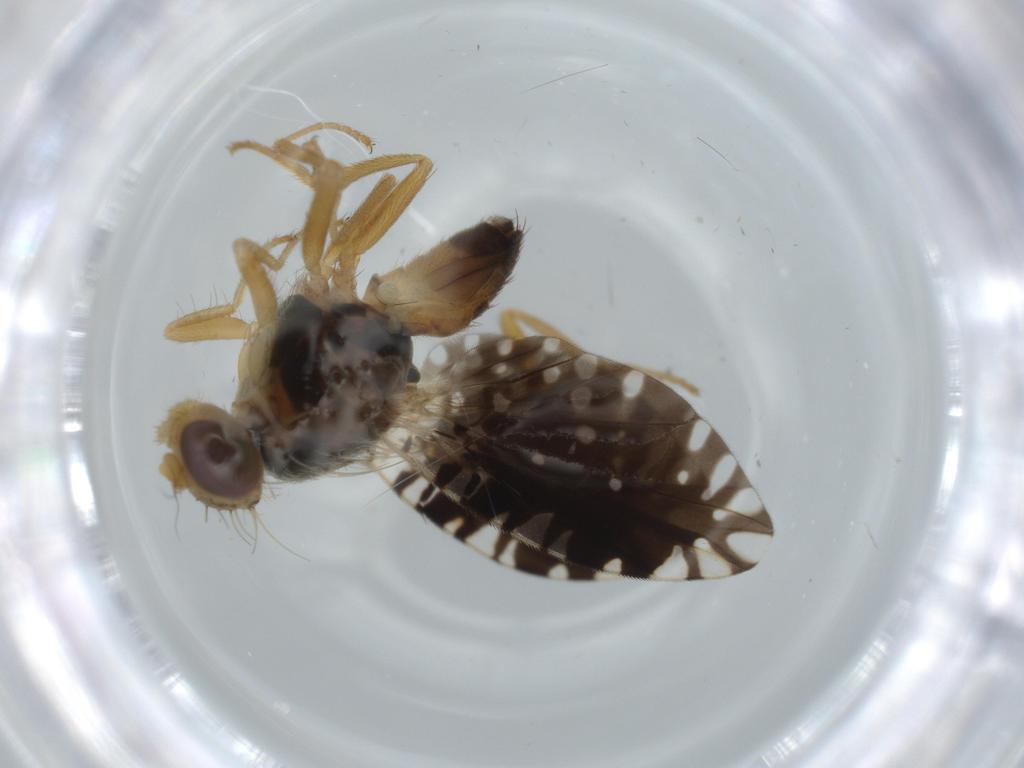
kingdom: Animalia
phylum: Arthropoda
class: Insecta
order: Diptera
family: Tephritidae
